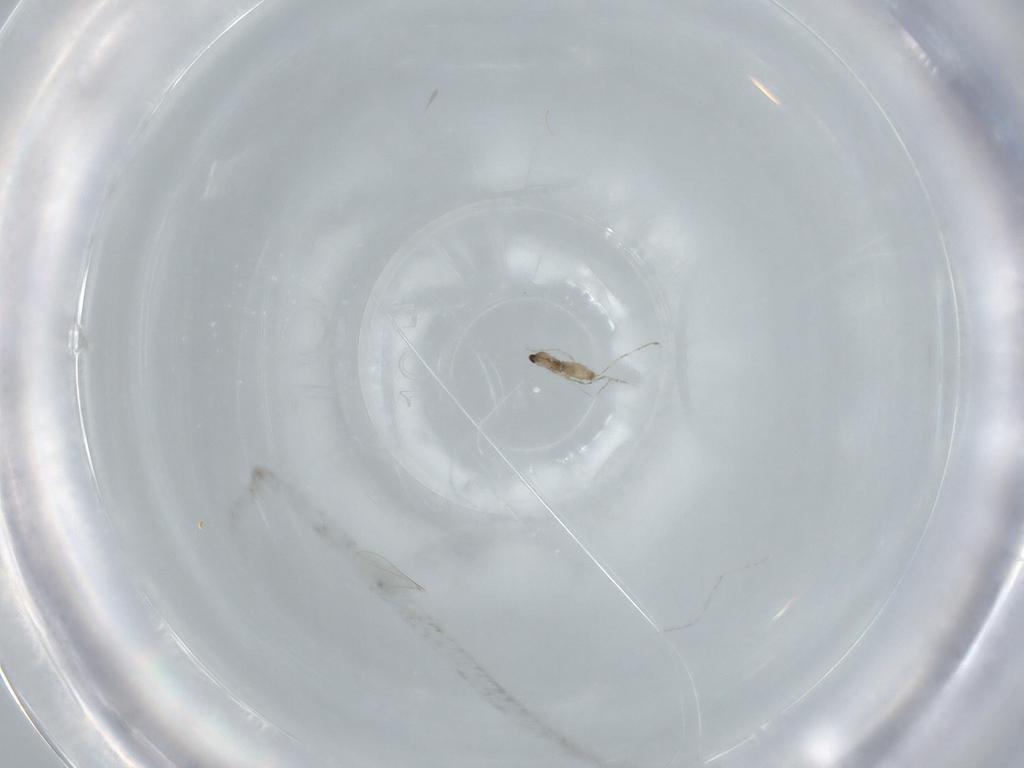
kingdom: Animalia
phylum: Arthropoda
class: Insecta
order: Diptera
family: Cecidomyiidae
